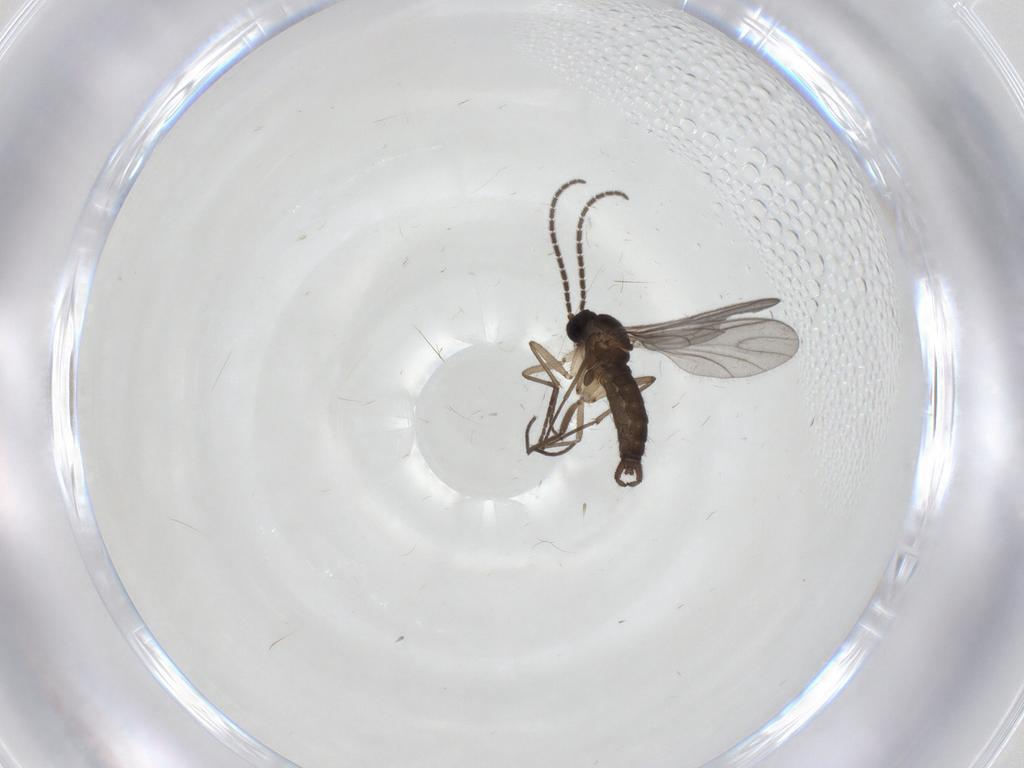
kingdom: Animalia
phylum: Arthropoda
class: Insecta
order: Diptera
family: Sciaridae
